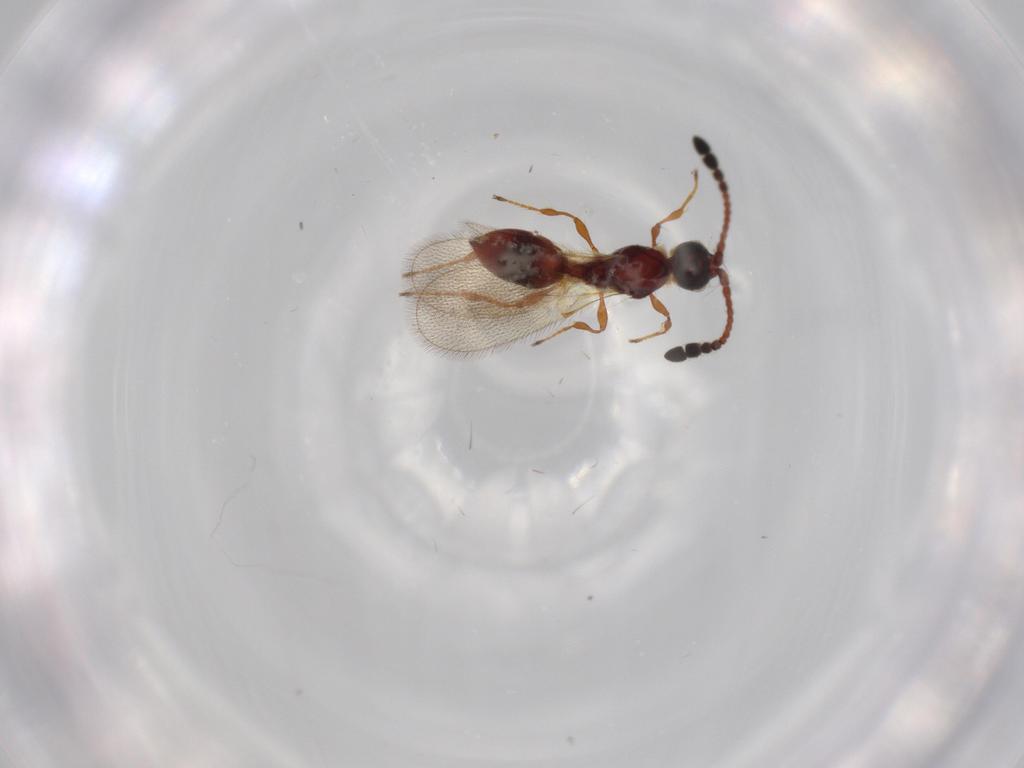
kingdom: Animalia
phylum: Arthropoda
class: Insecta
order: Hymenoptera
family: Diapriidae
